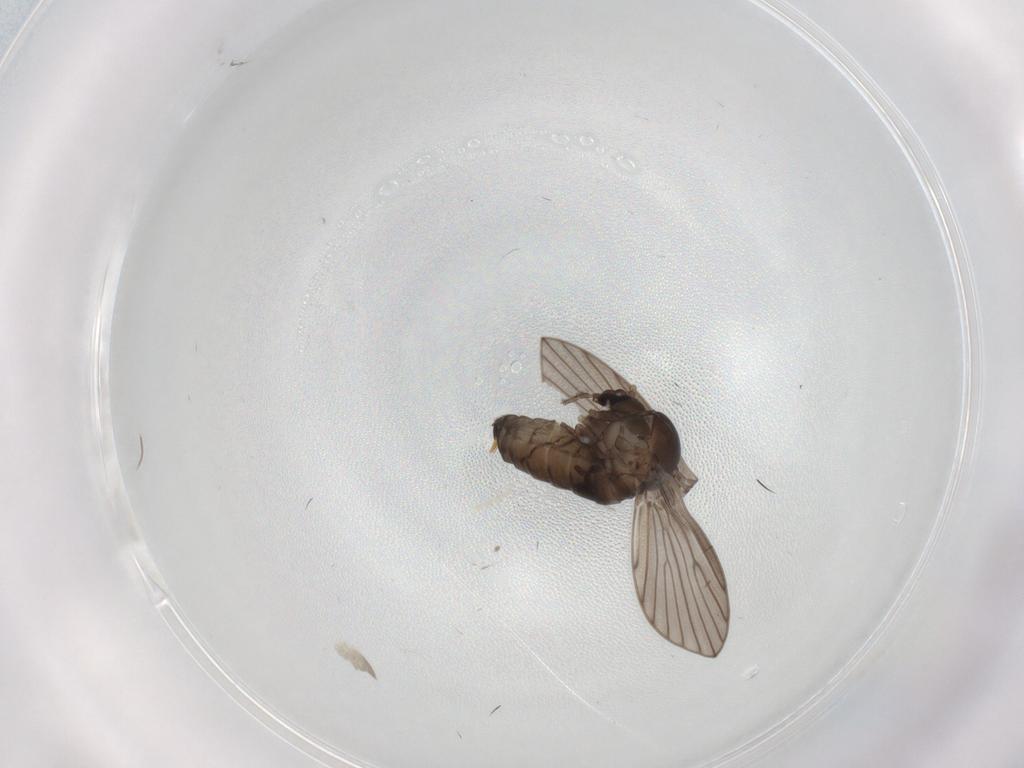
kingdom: Animalia
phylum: Arthropoda
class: Insecta
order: Diptera
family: Psychodidae
